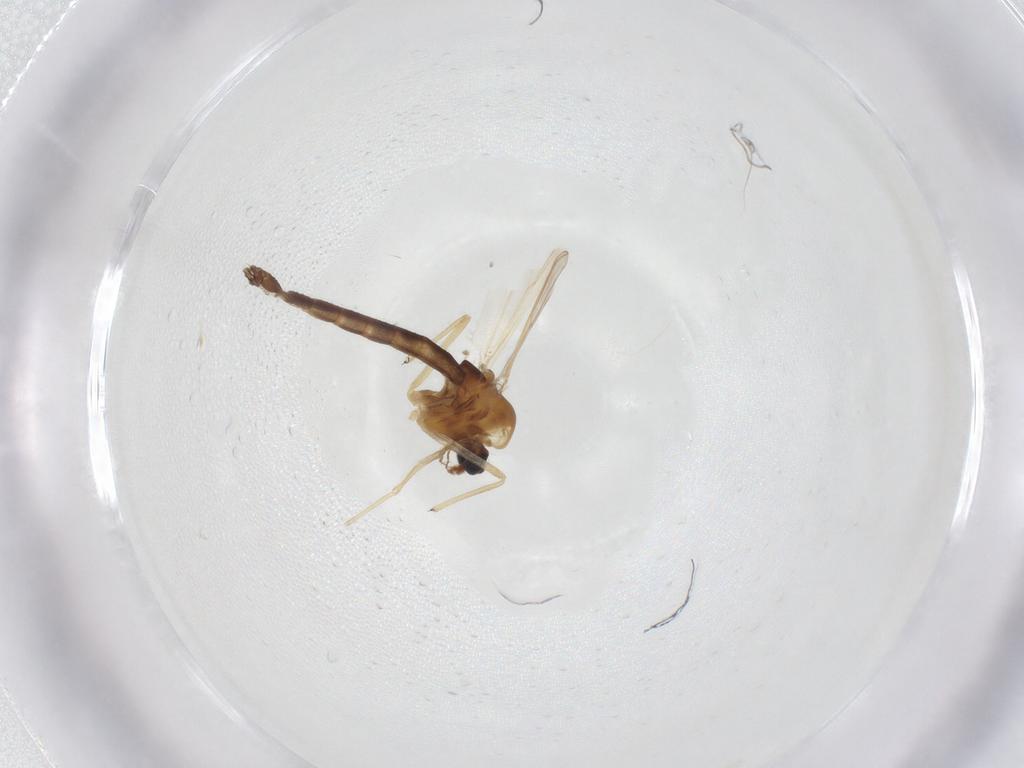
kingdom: Animalia
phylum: Arthropoda
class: Insecta
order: Diptera
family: Chironomidae
